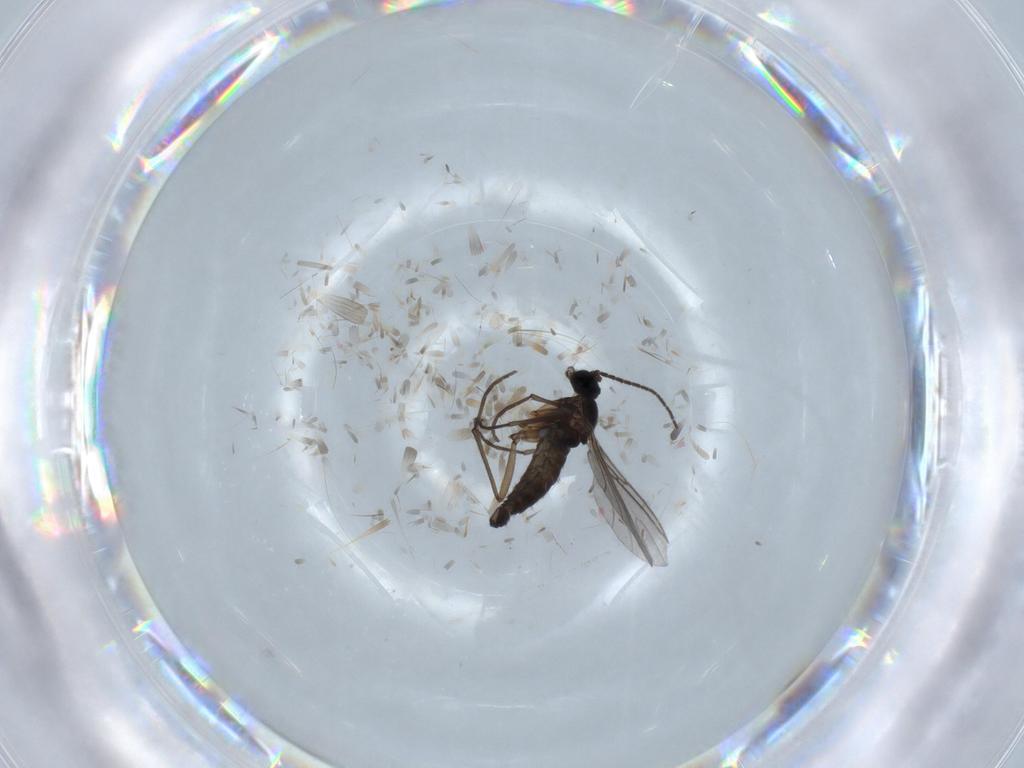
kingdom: Animalia
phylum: Arthropoda
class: Insecta
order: Diptera
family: Sciaridae
